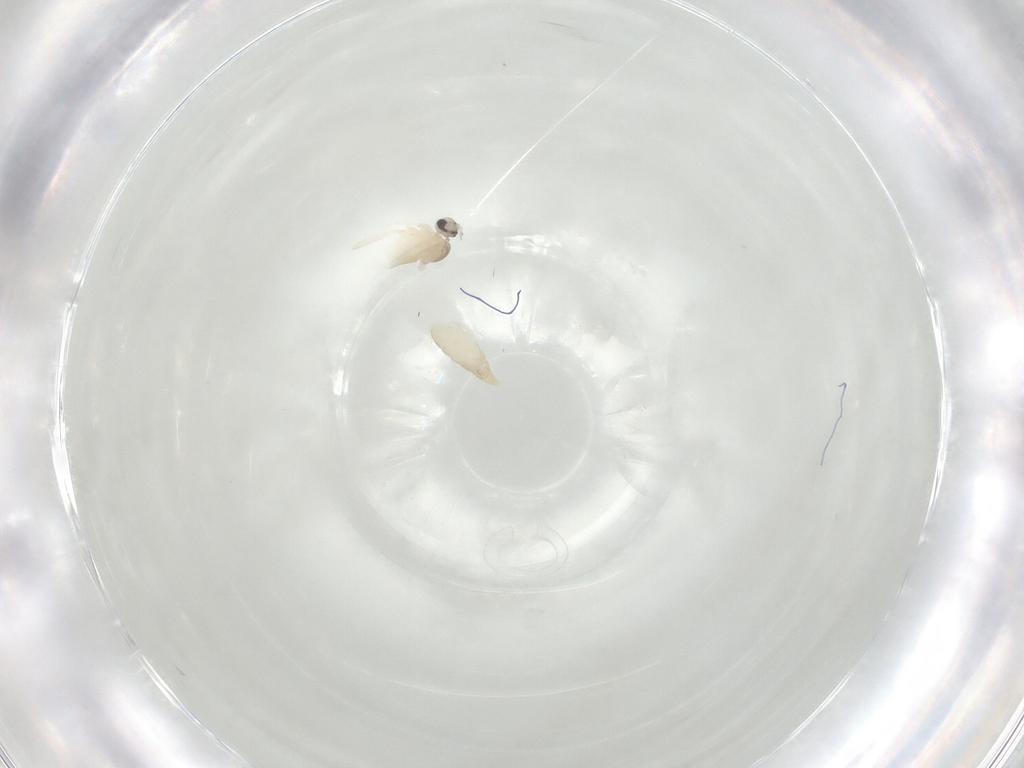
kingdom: Animalia
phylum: Arthropoda
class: Insecta
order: Diptera
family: Cecidomyiidae
